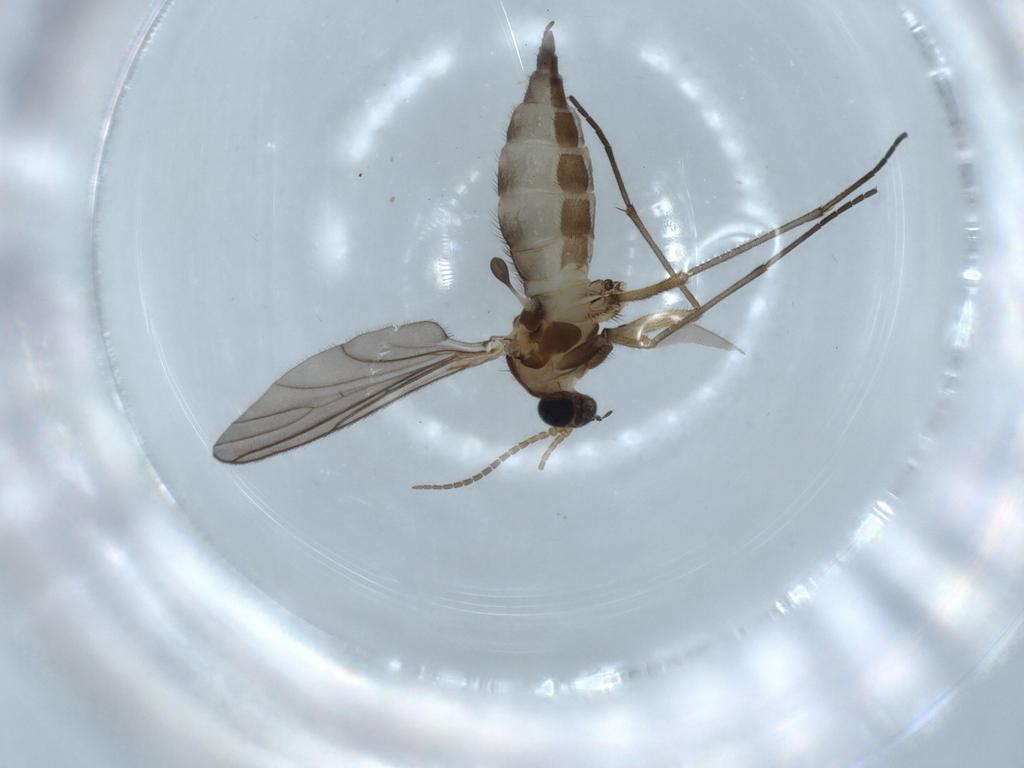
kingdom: Animalia
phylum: Arthropoda
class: Insecta
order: Diptera
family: Sciaridae
